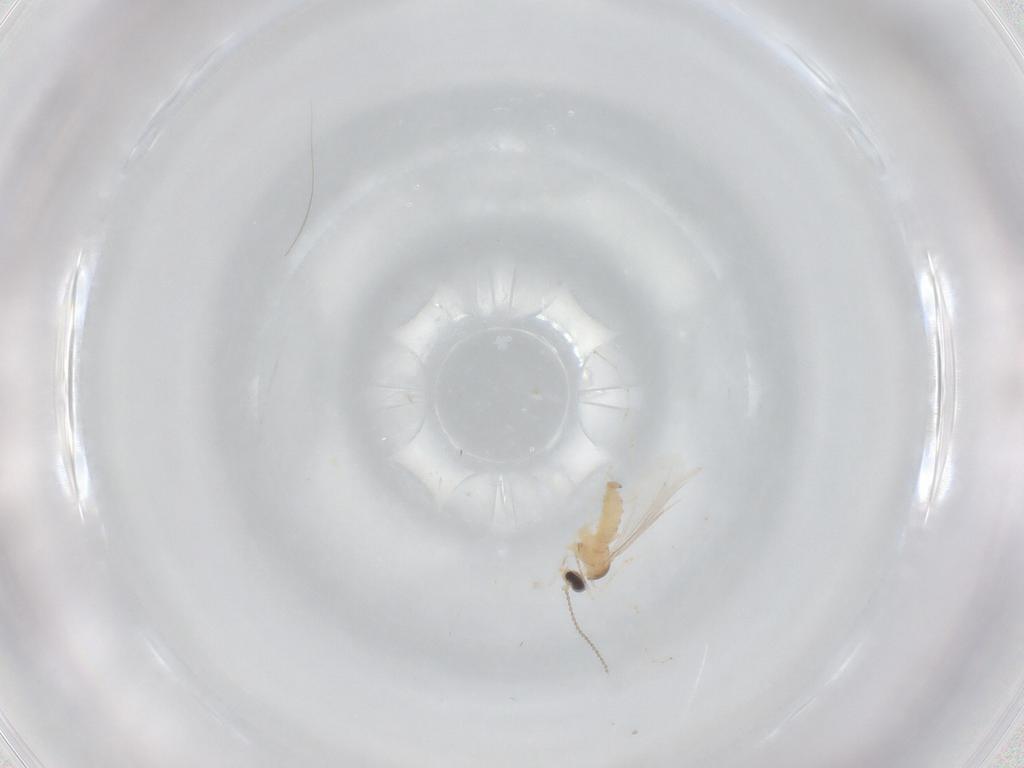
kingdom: Animalia
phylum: Arthropoda
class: Insecta
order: Diptera
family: Cecidomyiidae
